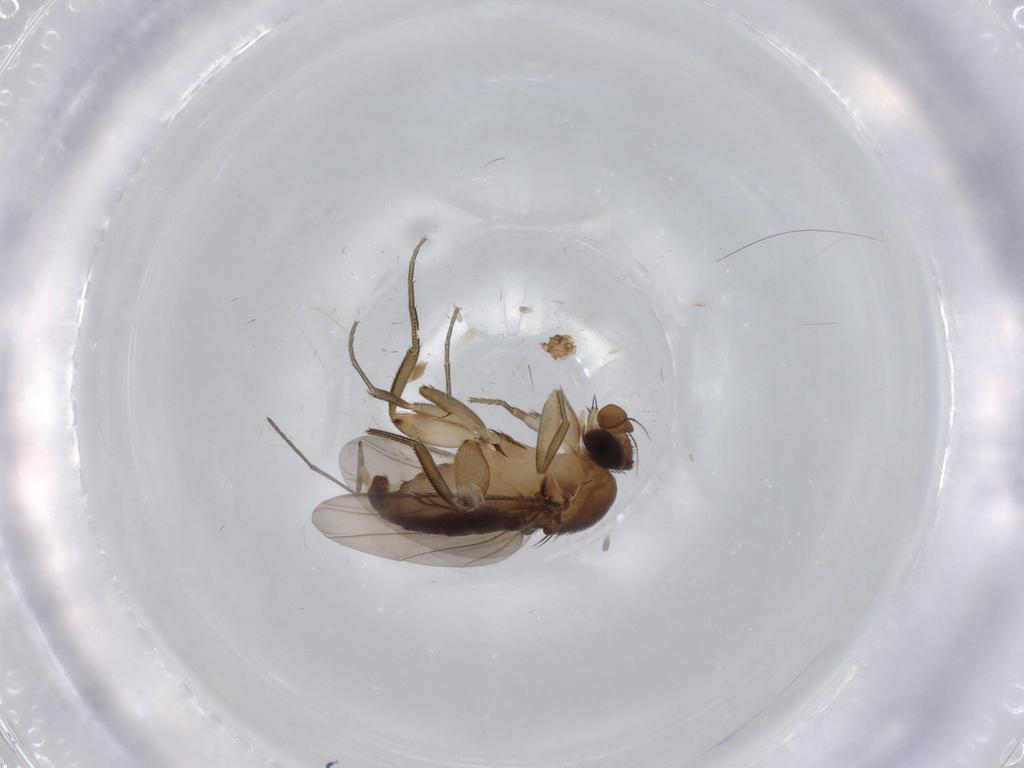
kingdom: Animalia
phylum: Arthropoda
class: Insecta
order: Diptera
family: Phoridae
